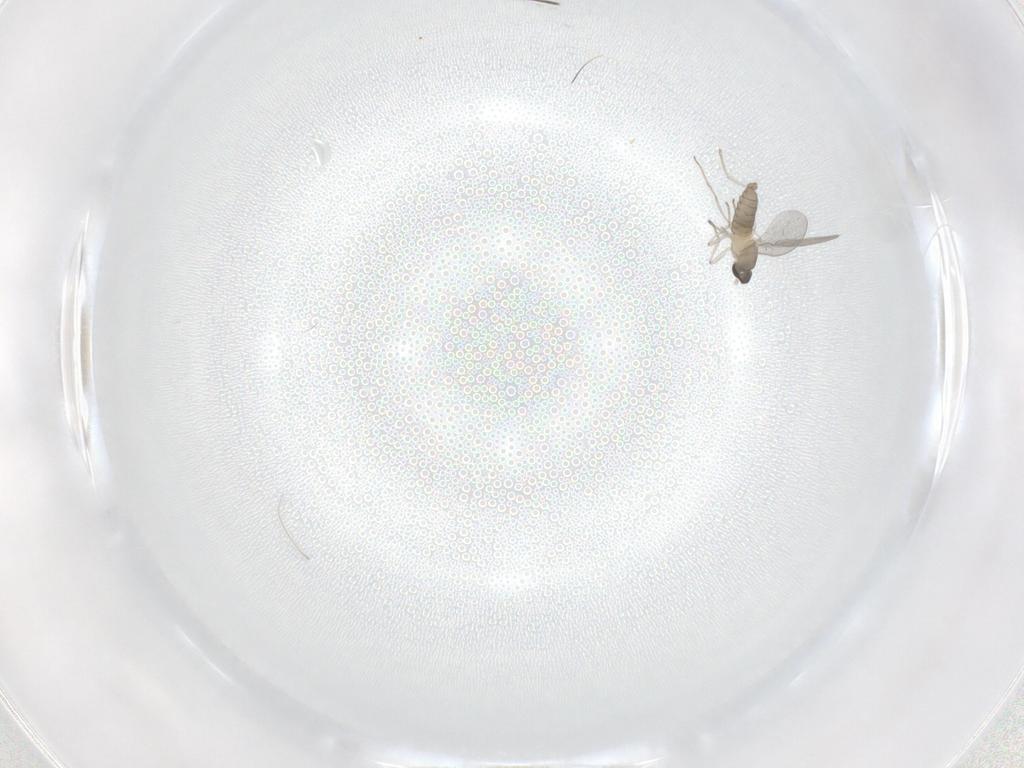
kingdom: Animalia
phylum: Arthropoda
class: Insecta
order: Diptera
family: Cecidomyiidae
